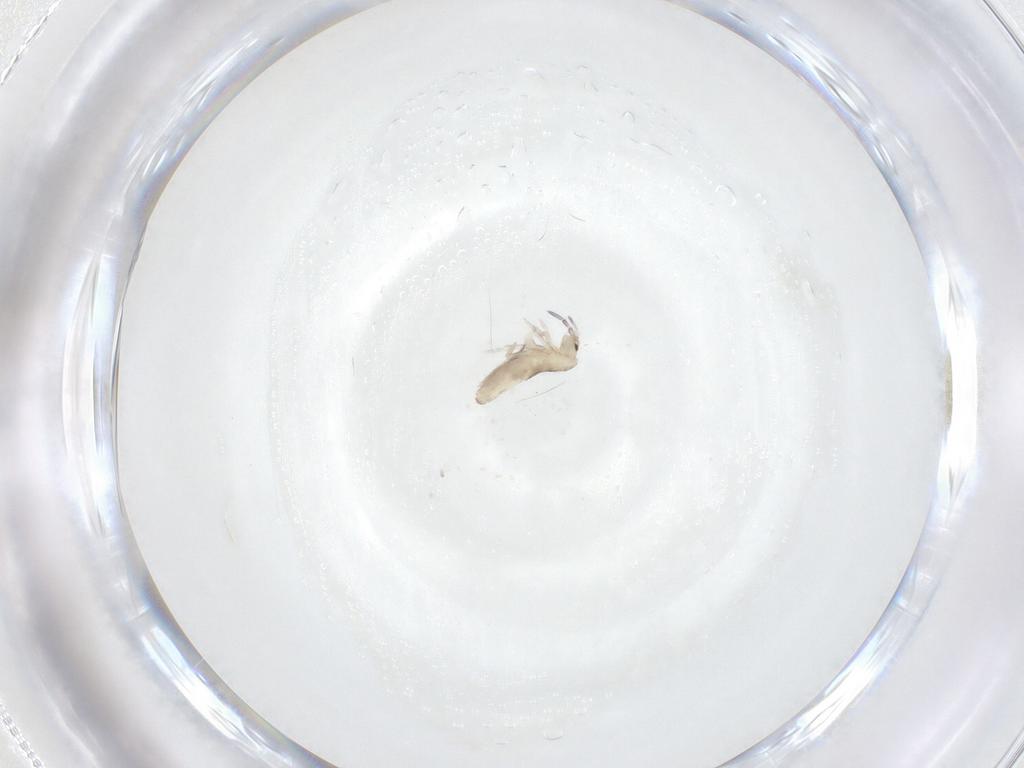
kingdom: Animalia
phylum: Arthropoda
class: Collembola
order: Entomobryomorpha
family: Entomobryidae
